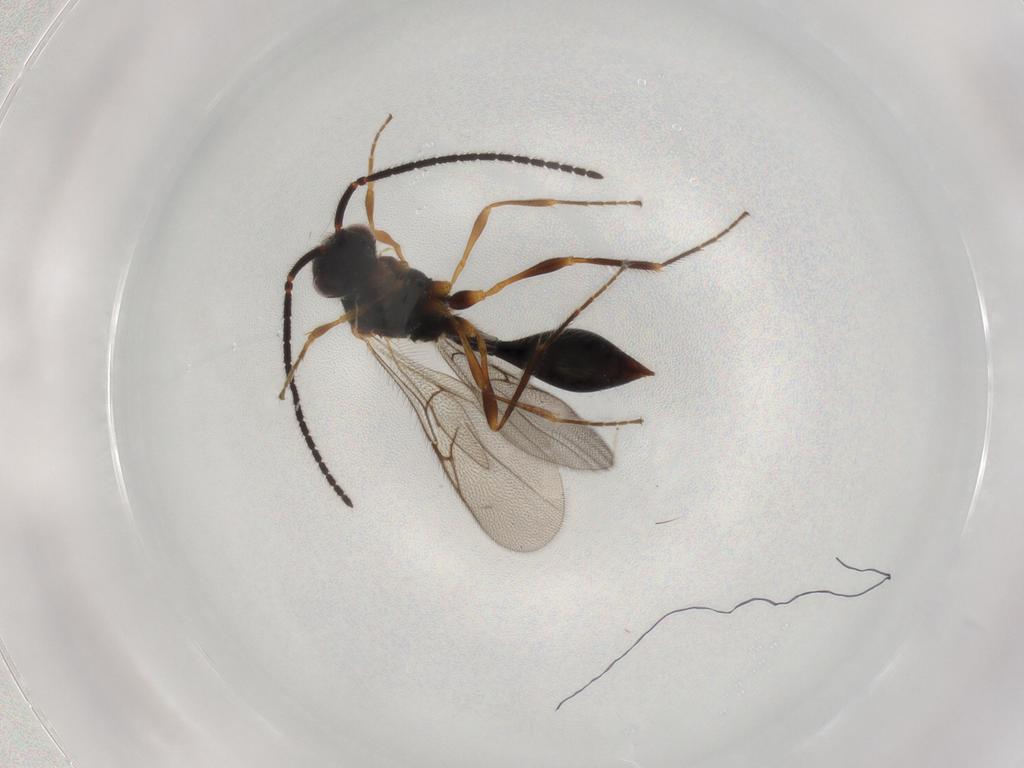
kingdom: Animalia
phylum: Arthropoda
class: Insecta
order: Hymenoptera
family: Diapriidae
